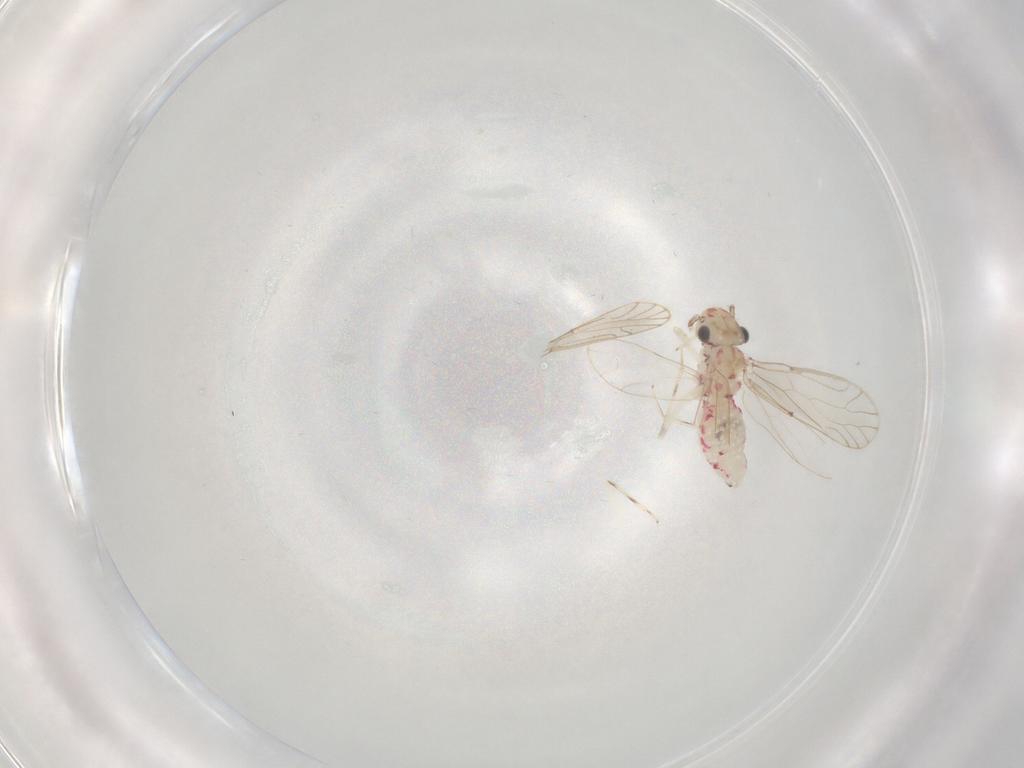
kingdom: Animalia
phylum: Arthropoda
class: Insecta
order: Psocodea
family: Caeciliusidae
